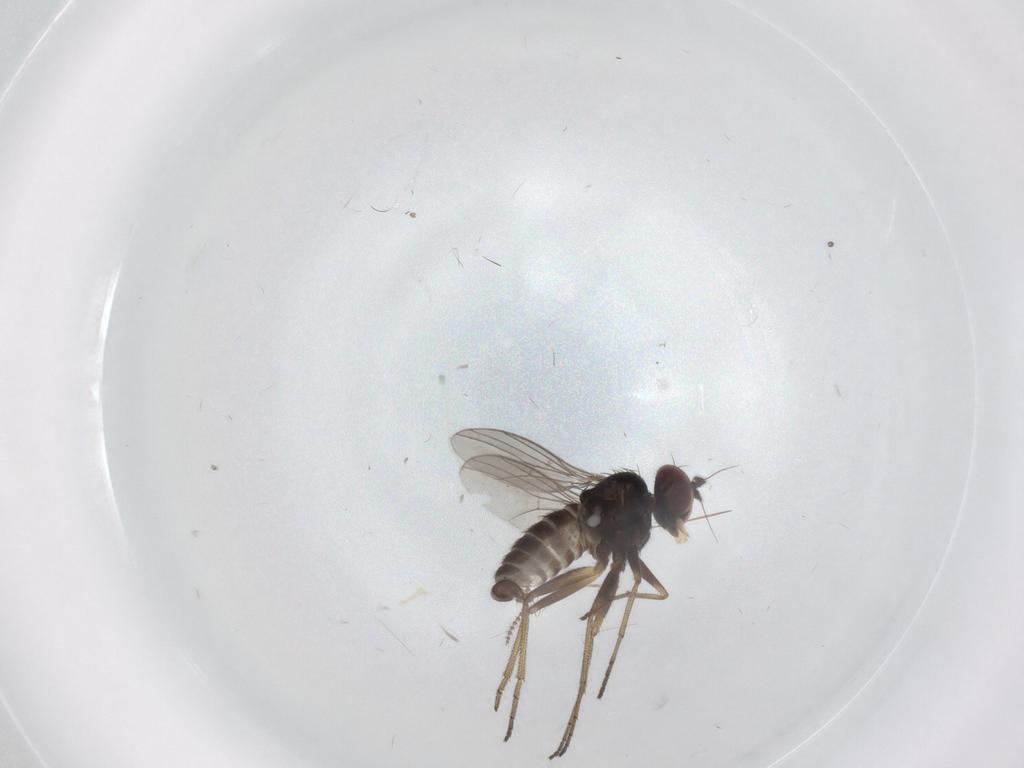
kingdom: Animalia
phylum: Arthropoda
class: Insecta
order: Diptera
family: Dolichopodidae
